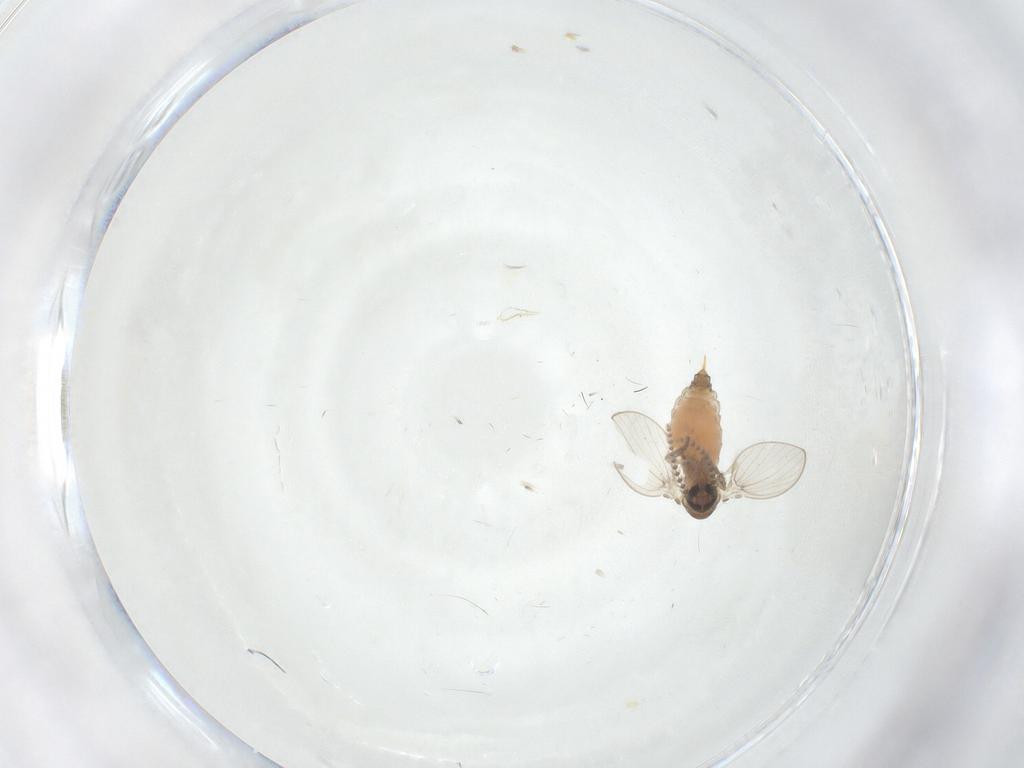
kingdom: Animalia
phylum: Arthropoda
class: Insecta
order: Diptera
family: Psychodidae
